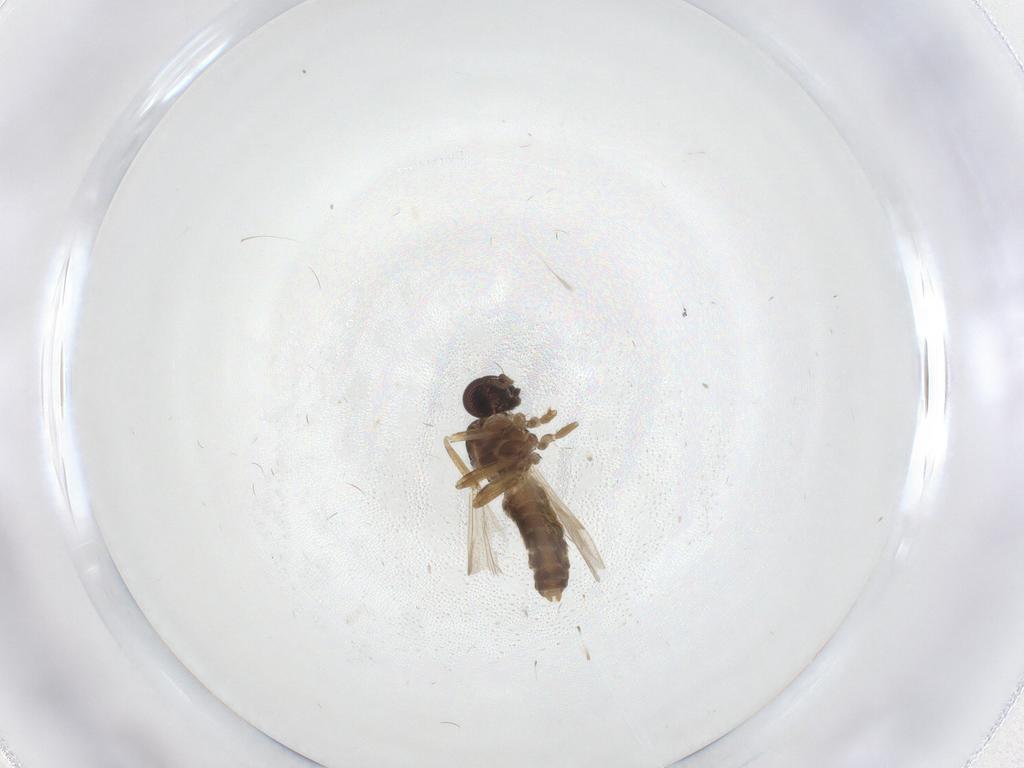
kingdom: Animalia
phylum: Arthropoda
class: Insecta
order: Diptera
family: Ceratopogonidae
